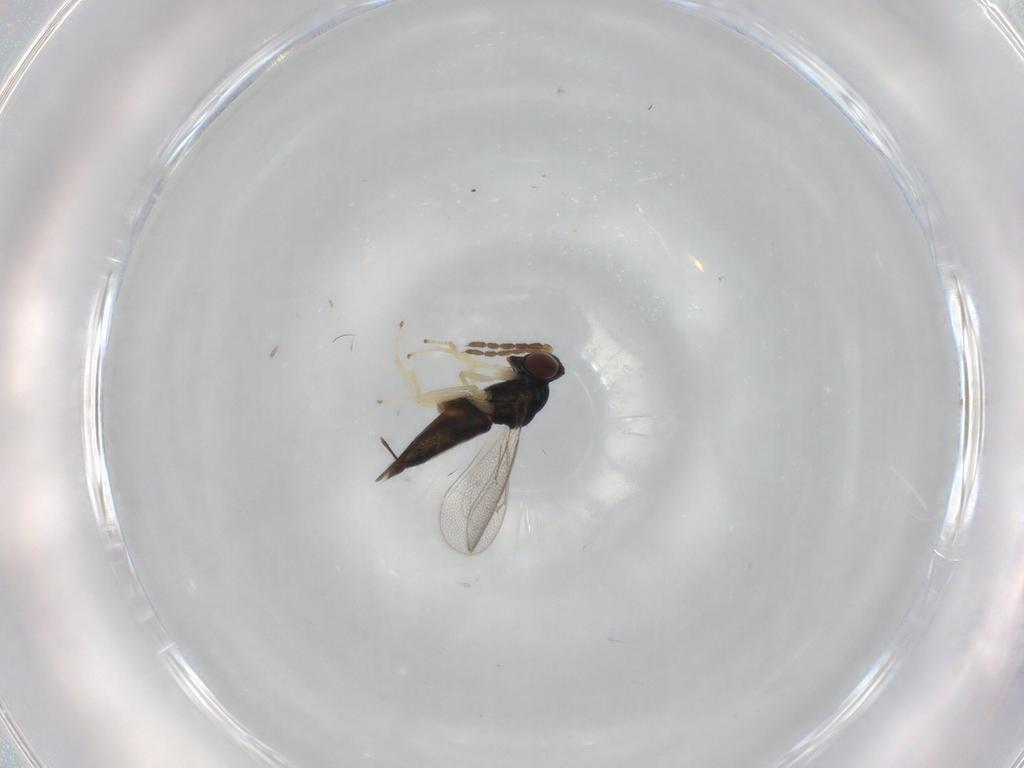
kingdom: Animalia
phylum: Arthropoda
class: Insecta
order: Hymenoptera
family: Eulophidae
